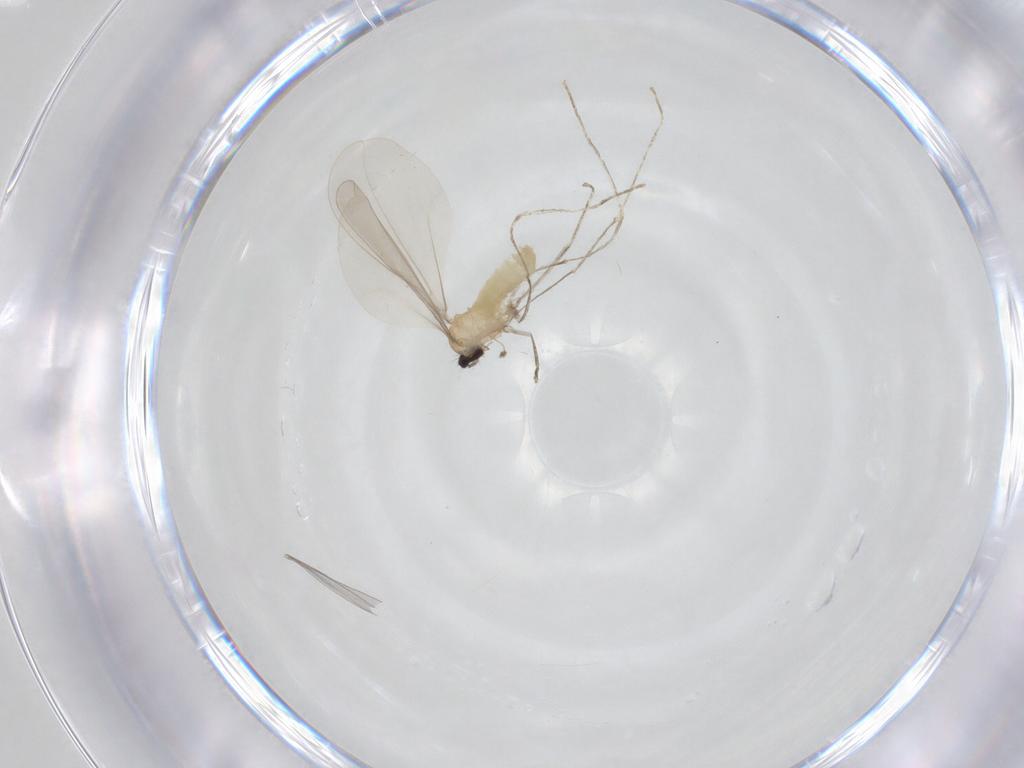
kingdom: Animalia
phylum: Arthropoda
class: Insecta
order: Diptera
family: Cecidomyiidae
